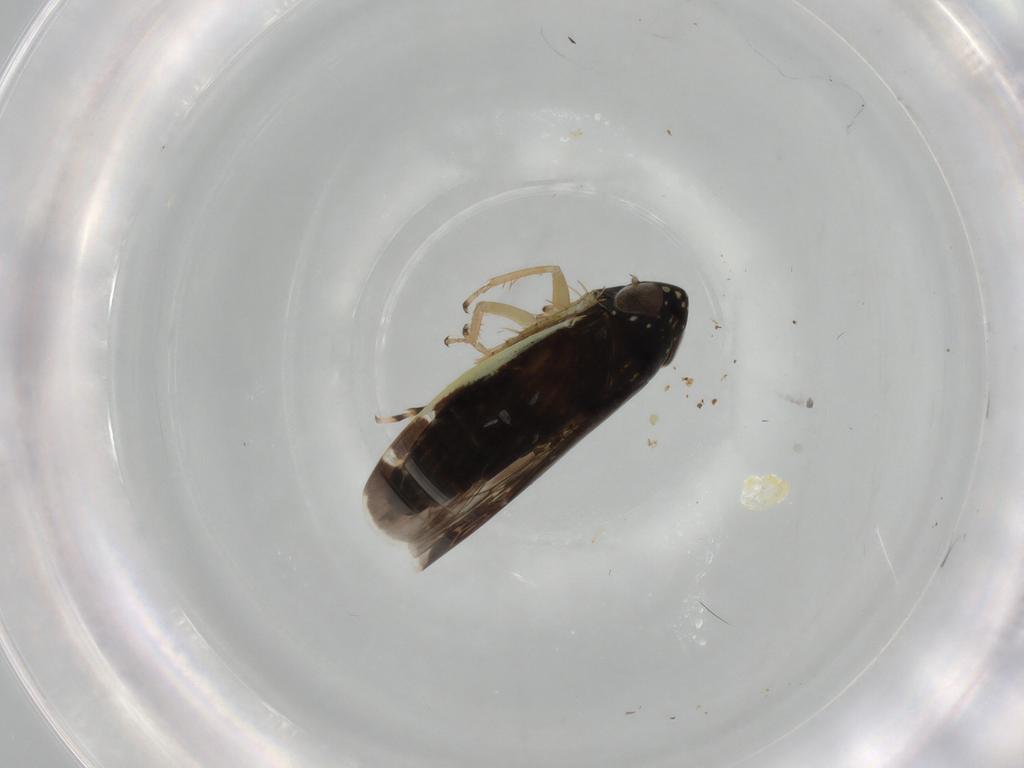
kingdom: Animalia
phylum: Arthropoda
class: Insecta
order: Hemiptera
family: Cicadellidae
